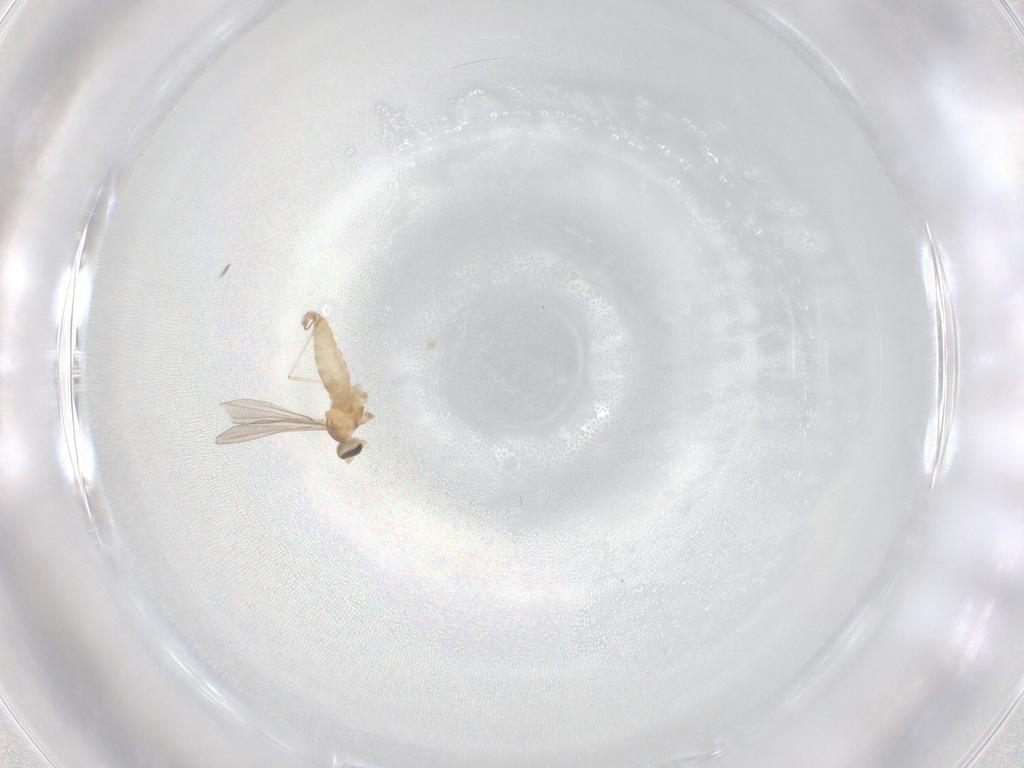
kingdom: Animalia
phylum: Arthropoda
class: Insecta
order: Diptera
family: Cecidomyiidae
